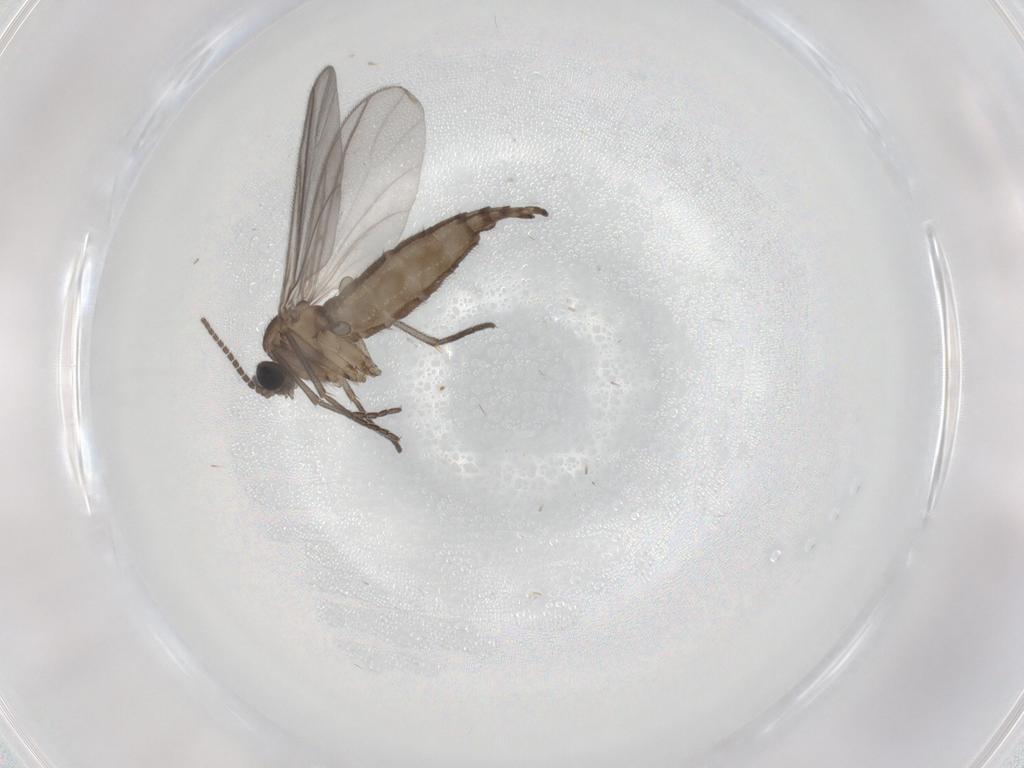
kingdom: Animalia
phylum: Arthropoda
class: Insecta
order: Diptera
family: Sciaridae
